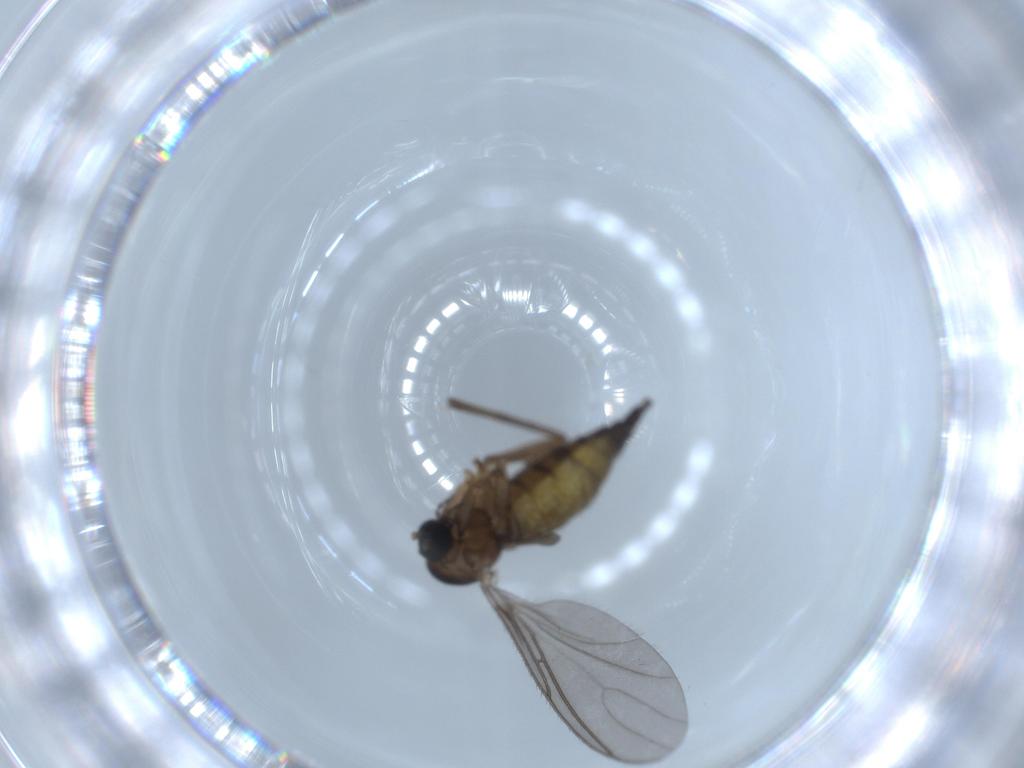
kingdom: Animalia
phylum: Arthropoda
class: Insecta
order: Diptera
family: Sciaridae
